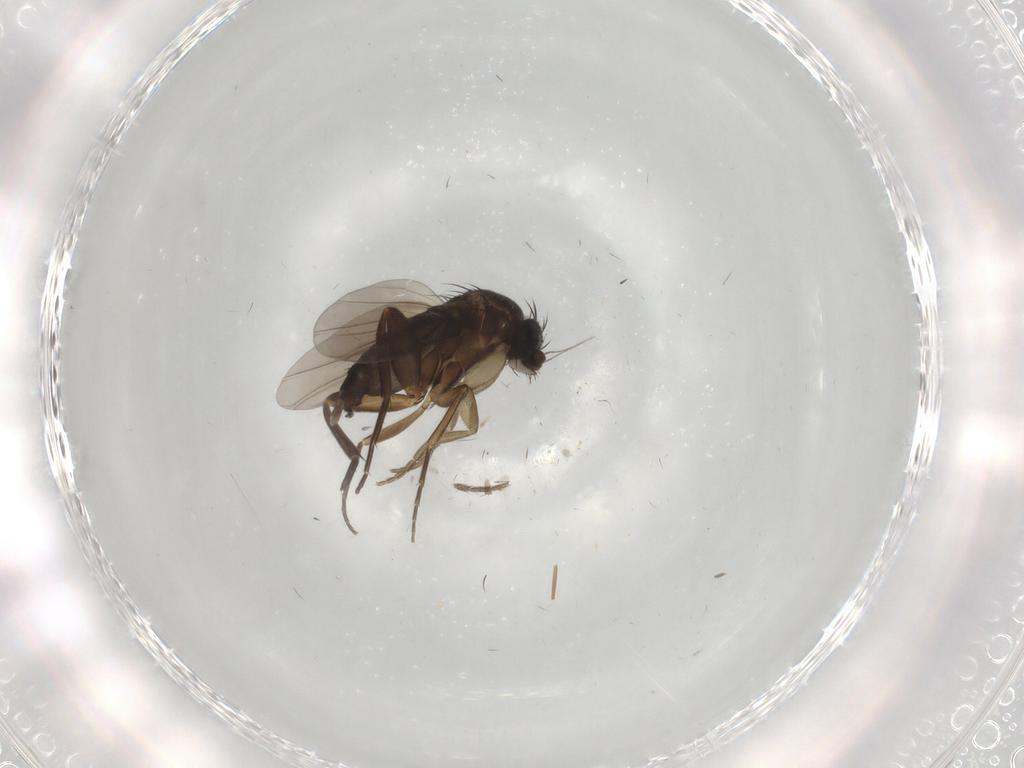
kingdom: Animalia
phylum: Arthropoda
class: Insecta
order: Diptera
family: Phoridae
